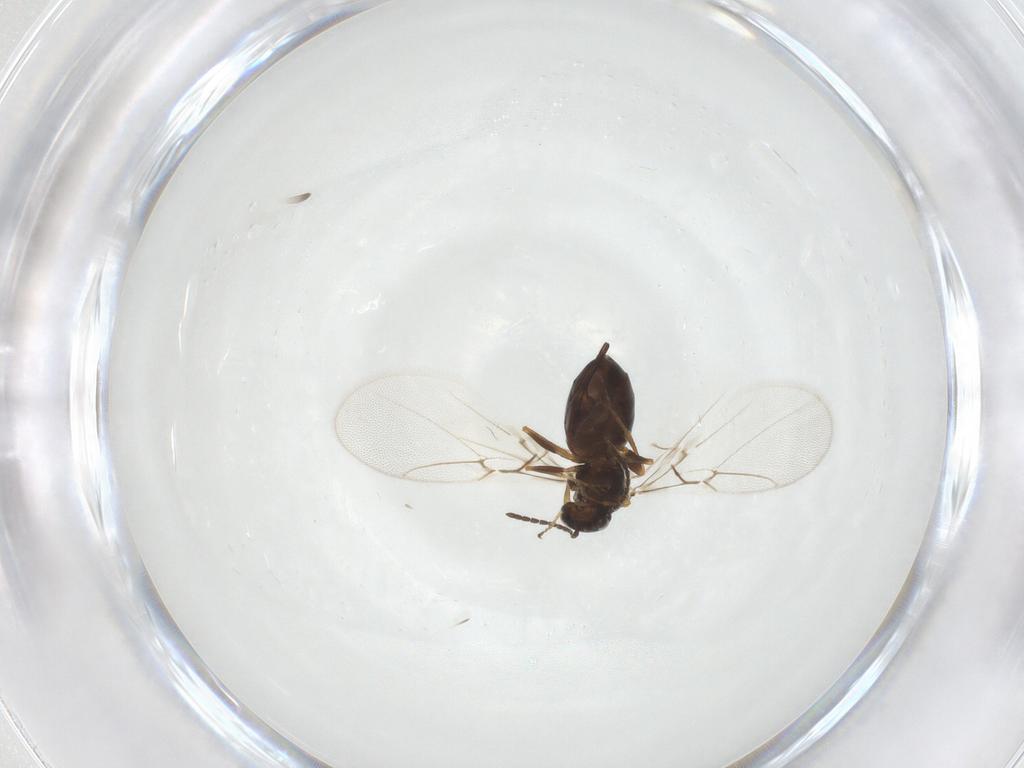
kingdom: Animalia
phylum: Arthropoda
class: Insecta
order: Hymenoptera
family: Cynipidae
